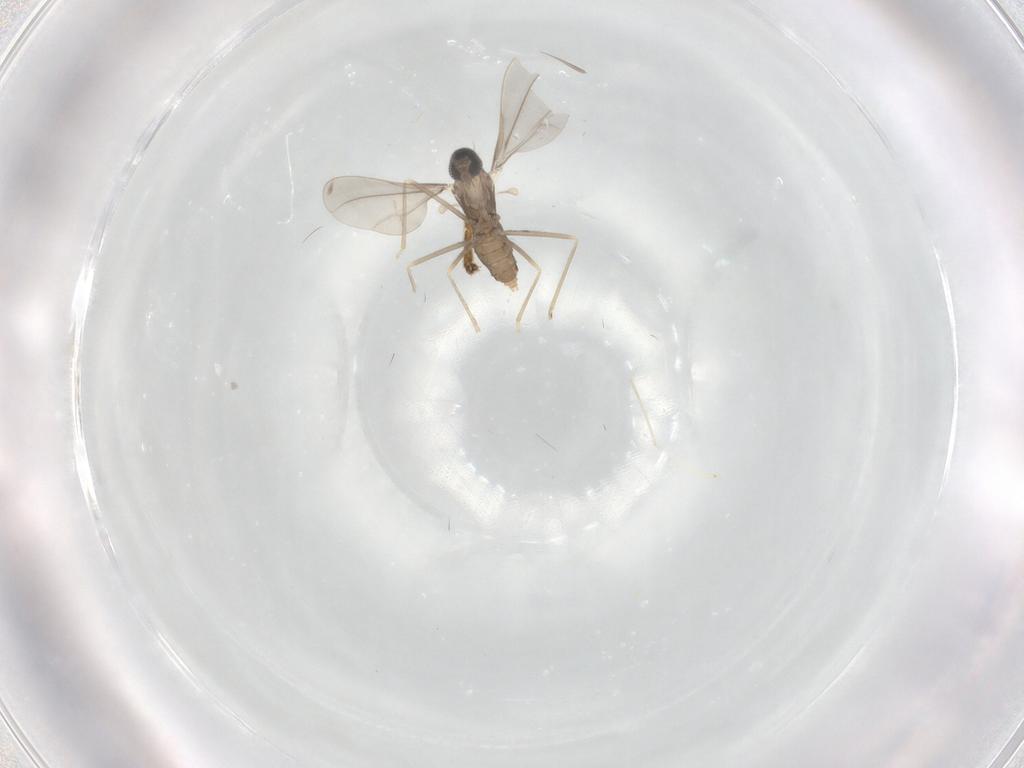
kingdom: Animalia
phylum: Arthropoda
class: Insecta
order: Diptera
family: Cecidomyiidae
